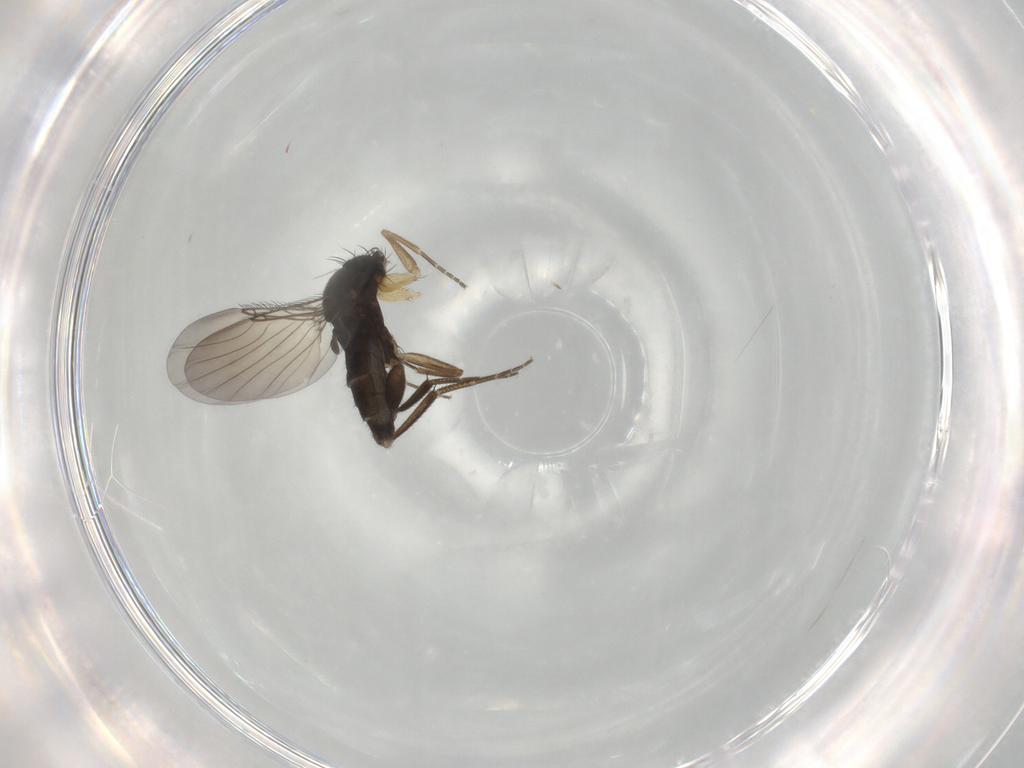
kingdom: Animalia
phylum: Arthropoda
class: Insecta
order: Diptera
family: Phoridae
